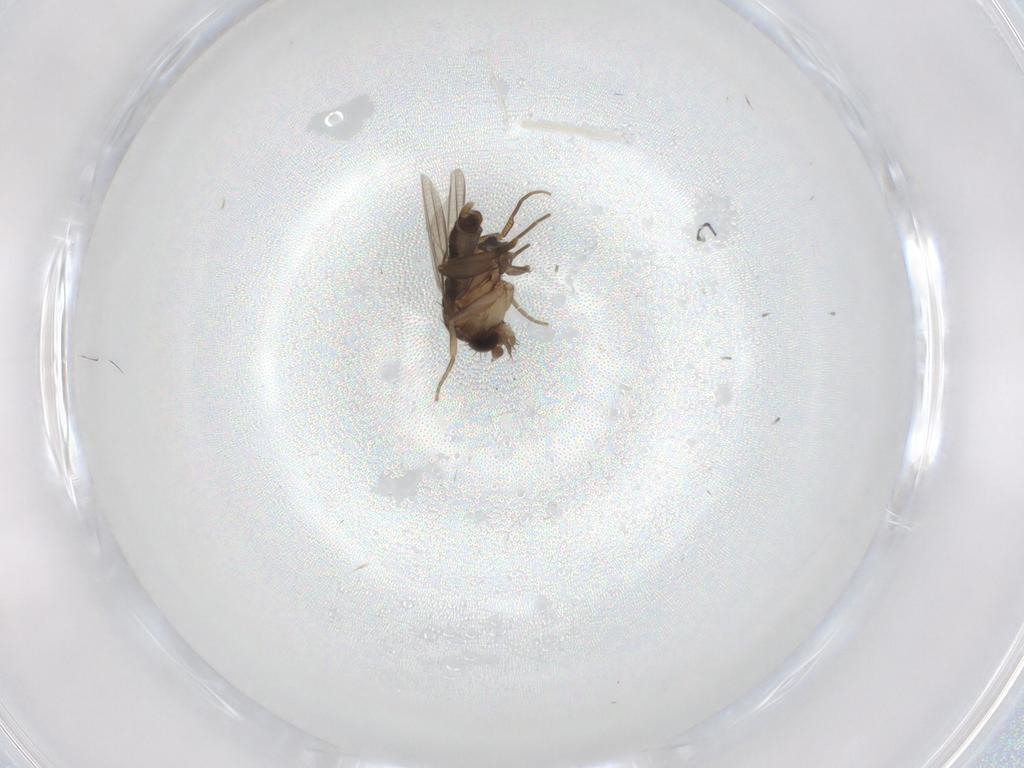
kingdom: Animalia
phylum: Arthropoda
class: Insecta
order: Diptera
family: Phoridae
